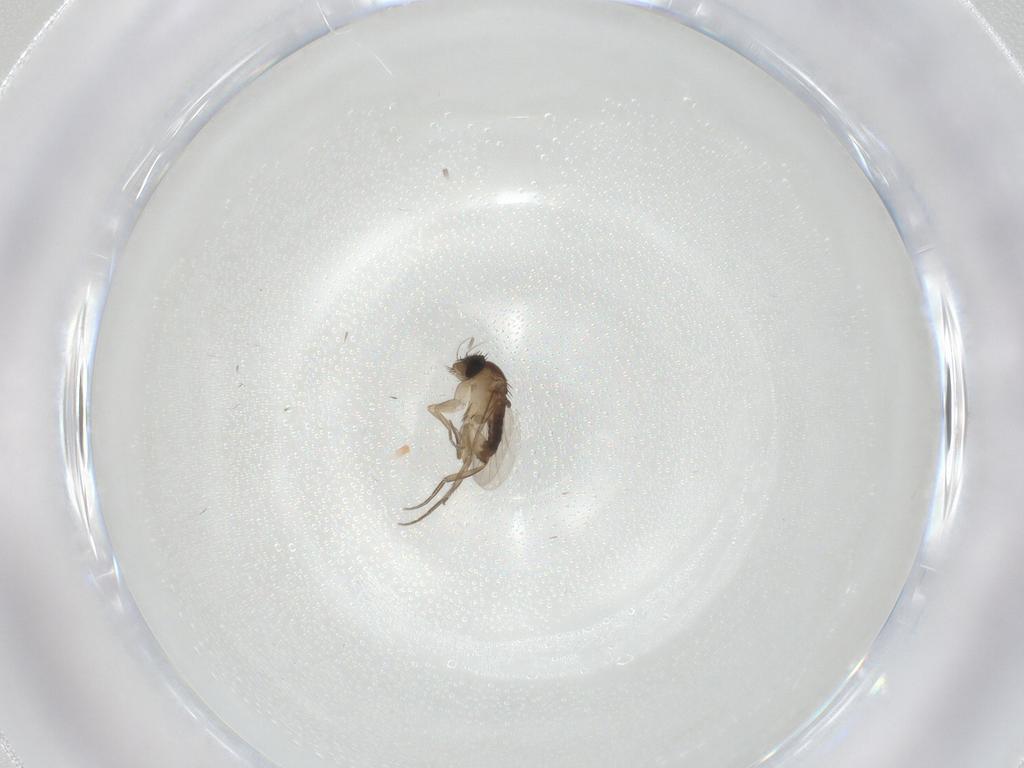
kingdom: Animalia
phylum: Arthropoda
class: Insecta
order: Diptera
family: Phoridae
